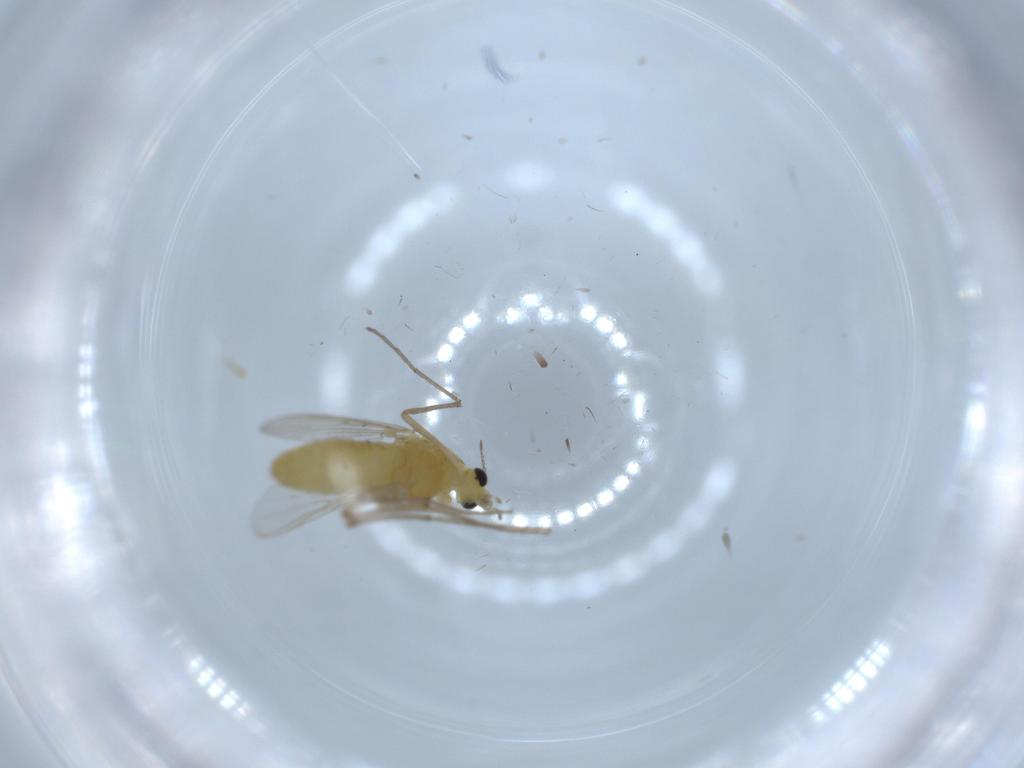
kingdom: Animalia
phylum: Arthropoda
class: Insecta
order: Diptera
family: Chironomidae
